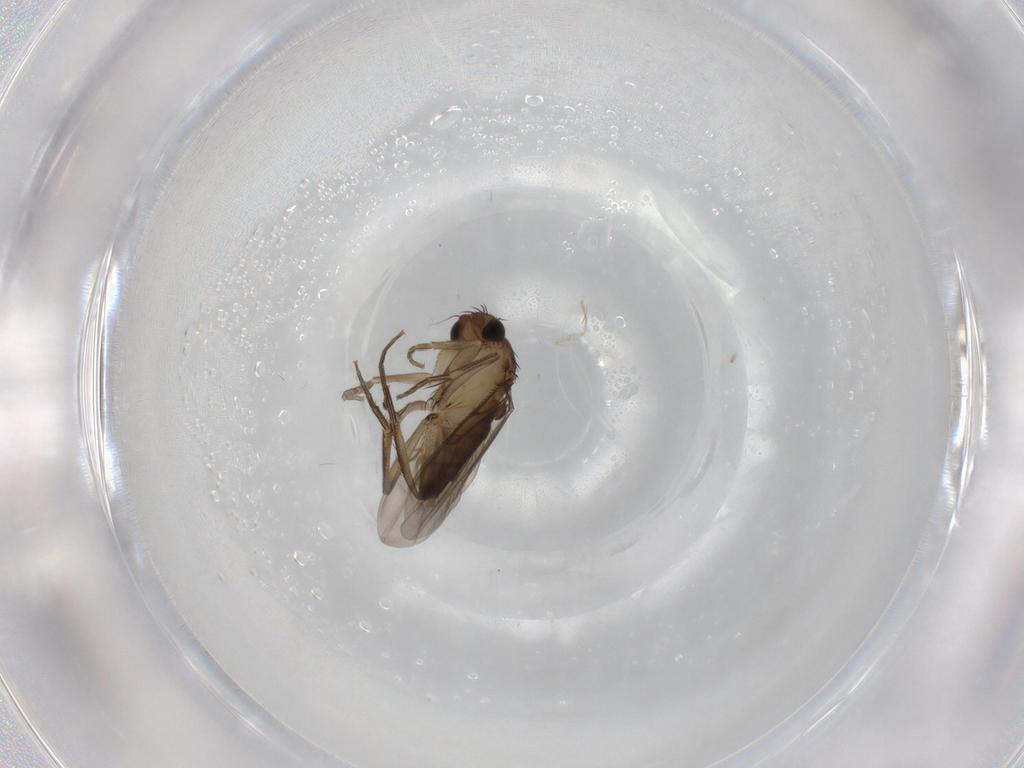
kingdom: Animalia
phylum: Arthropoda
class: Insecta
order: Diptera
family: Phoridae
